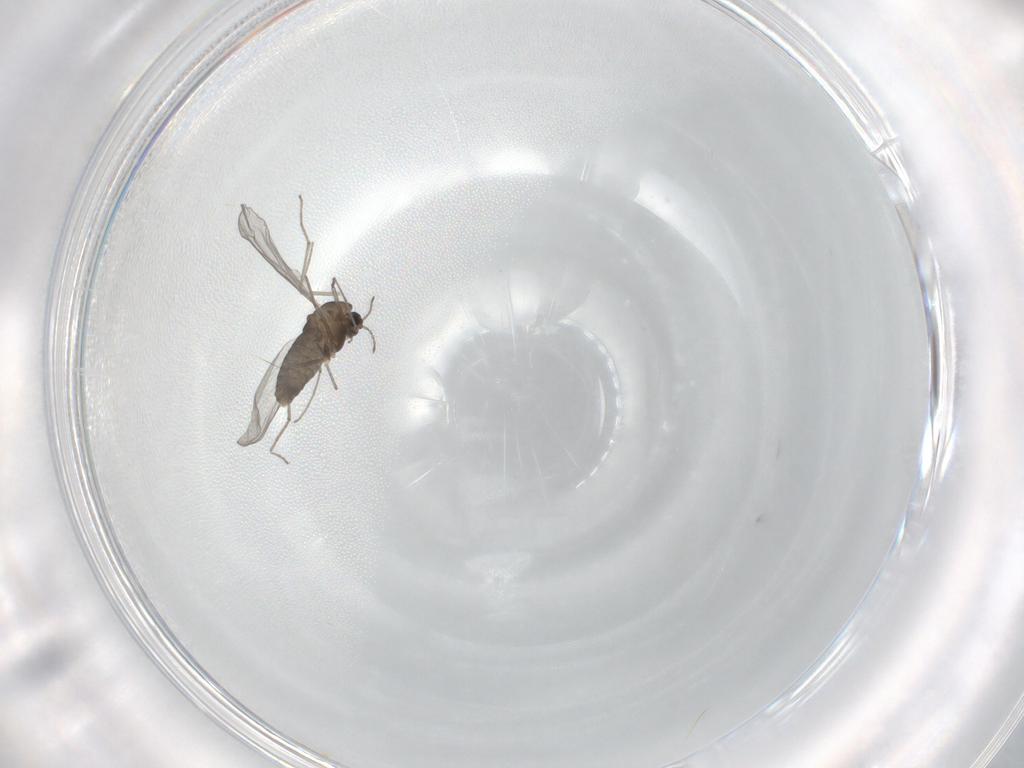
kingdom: Animalia
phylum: Arthropoda
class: Insecta
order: Diptera
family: Chironomidae
